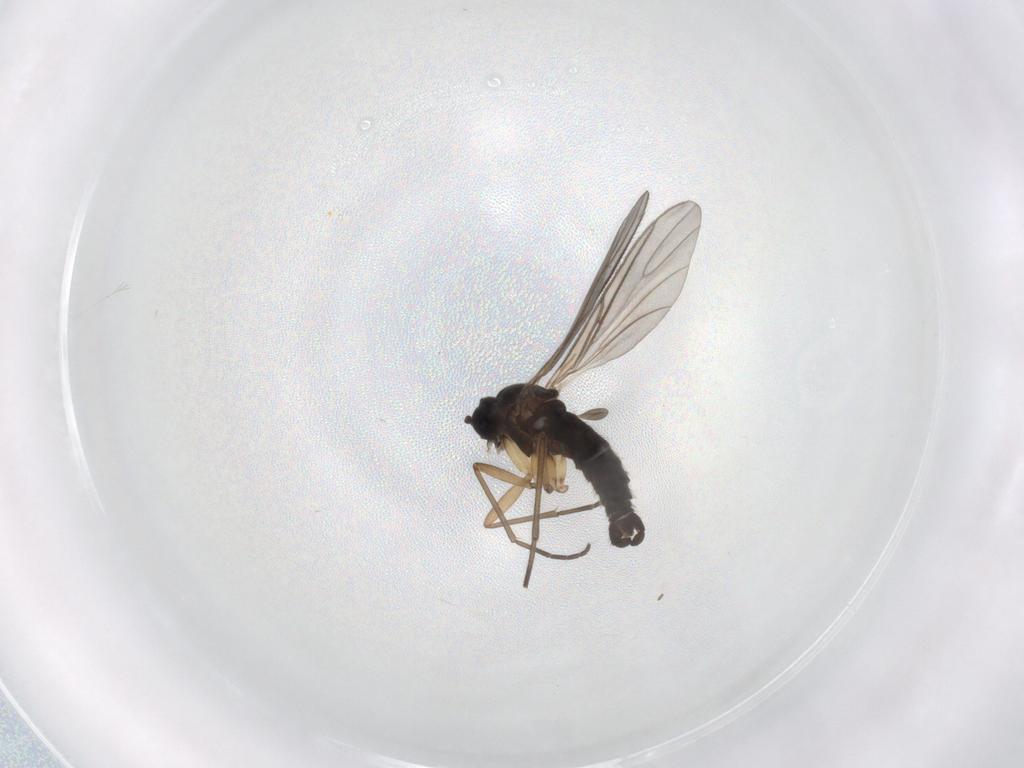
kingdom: Animalia
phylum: Arthropoda
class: Insecta
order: Diptera
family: Sciaridae
